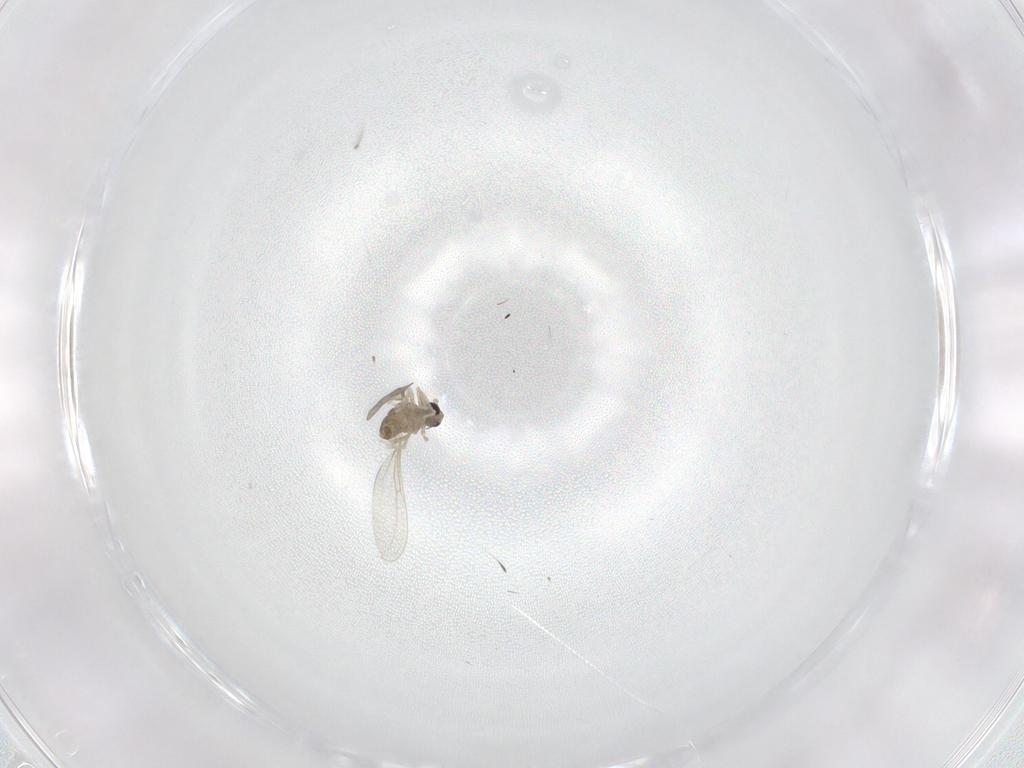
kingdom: Animalia
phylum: Arthropoda
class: Insecta
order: Diptera
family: Cecidomyiidae
